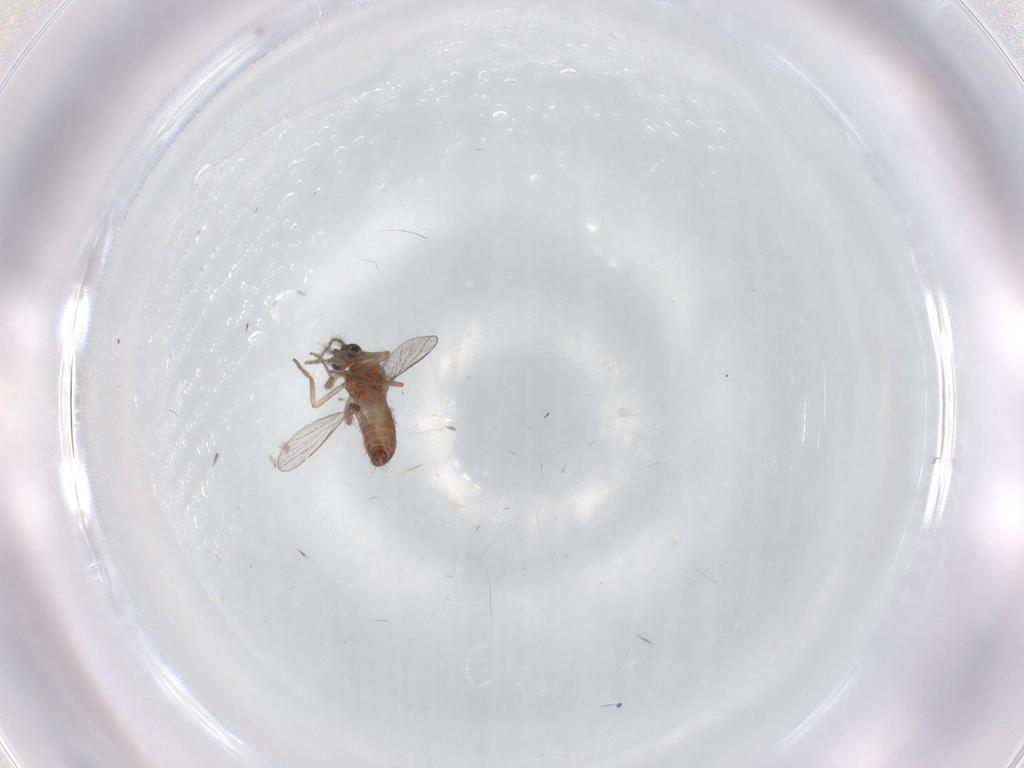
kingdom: Animalia
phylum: Arthropoda
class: Insecta
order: Diptera
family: Ceratopogonidae
